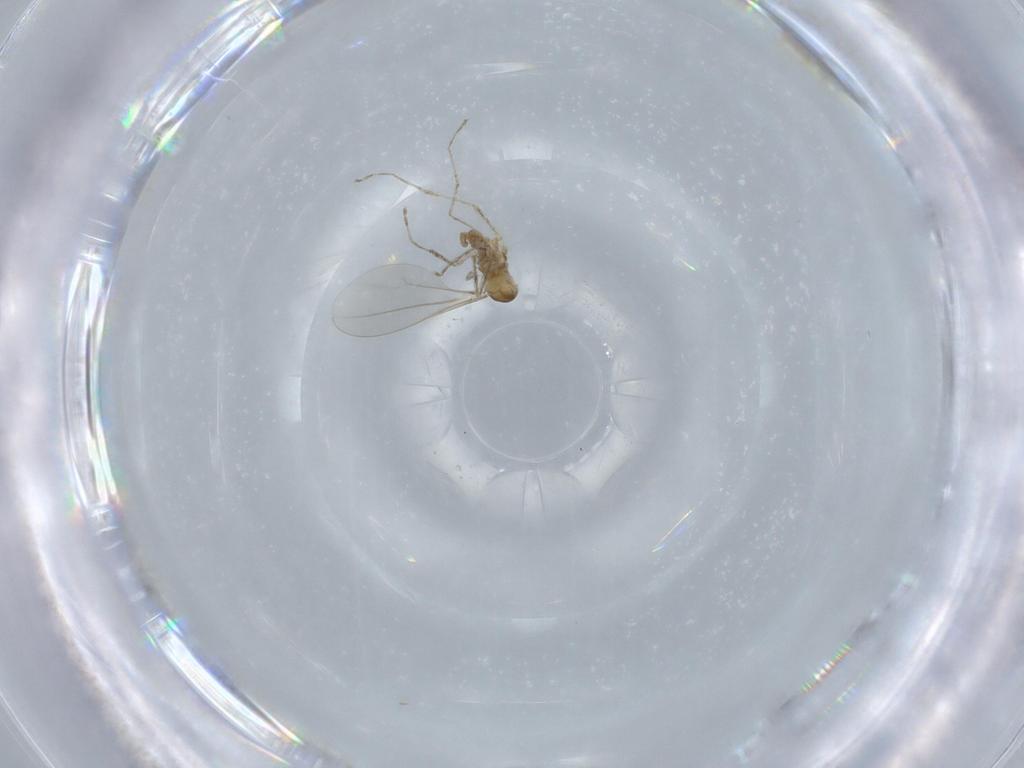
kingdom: Animalia
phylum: Arthropoda
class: Insecta
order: Diptera
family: Cecidomyiidae
